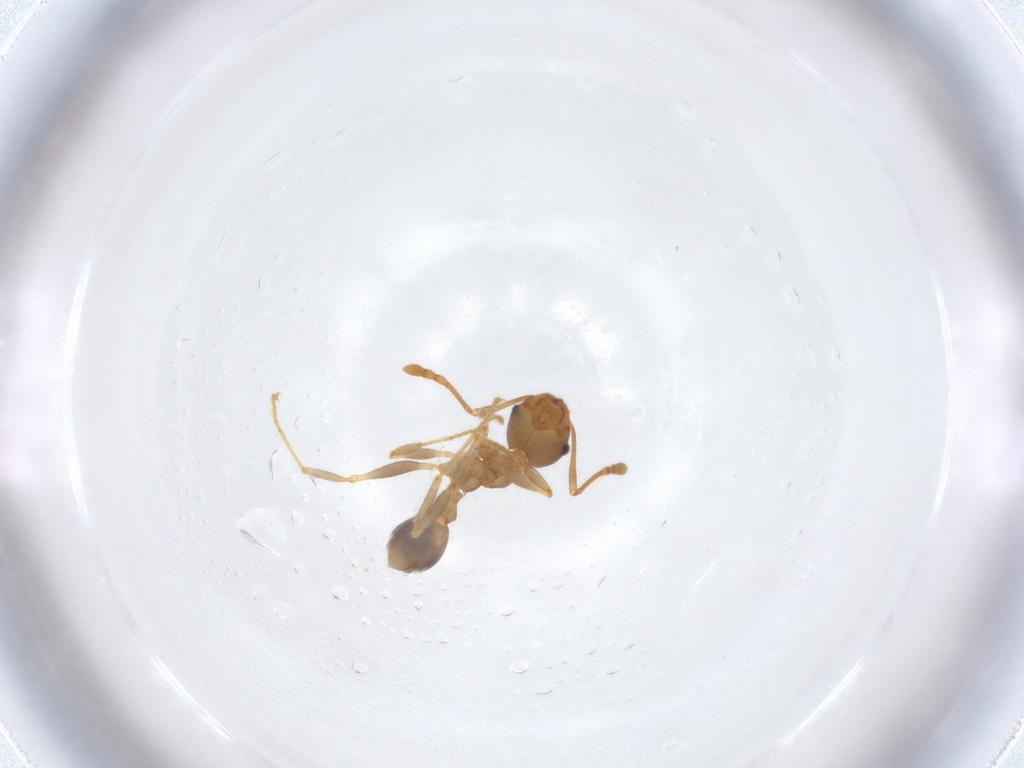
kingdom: Animalia
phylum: Arthropoda
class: Insecta
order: Hymenoptera
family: Formicidae
